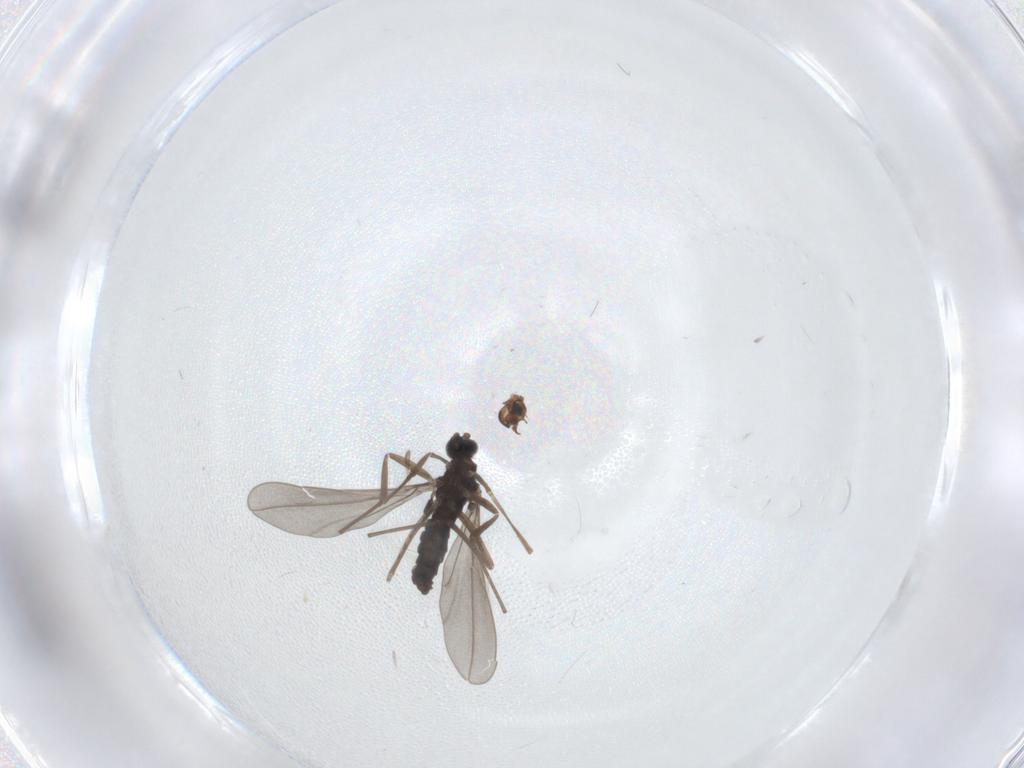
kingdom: Animalia
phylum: Arthropoda
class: Insecta
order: Diptera
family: Cecidomyiidae
